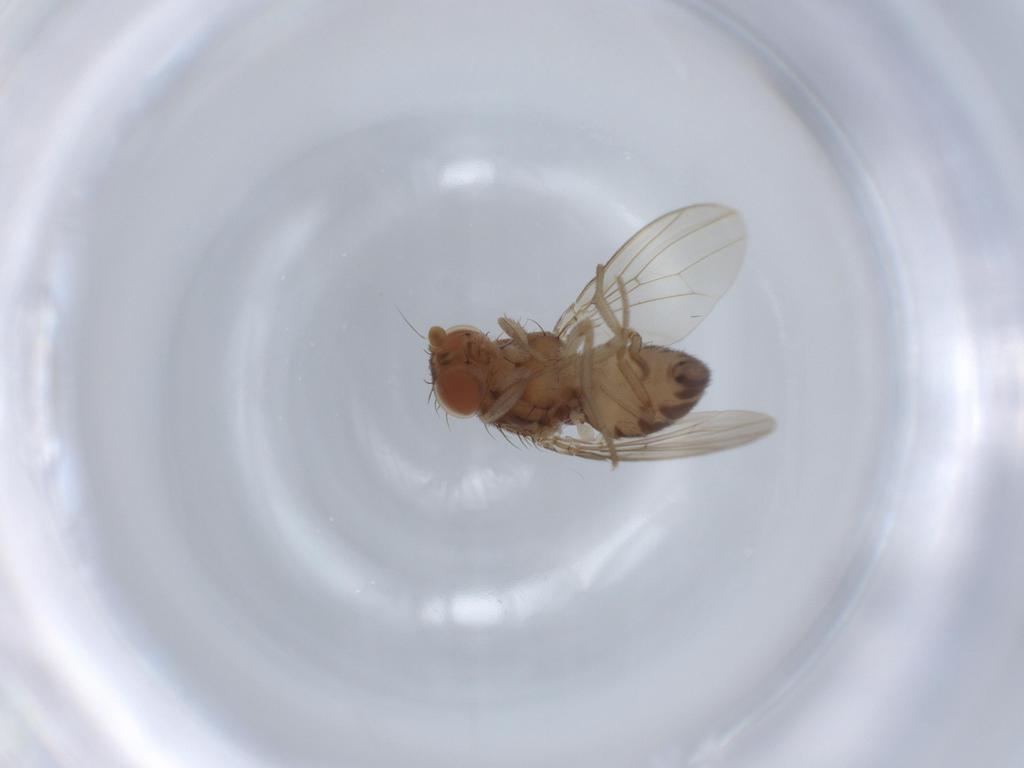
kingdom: Animalia
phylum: Arthropoda
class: Insecta
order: Diptera
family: Drosophilidae
